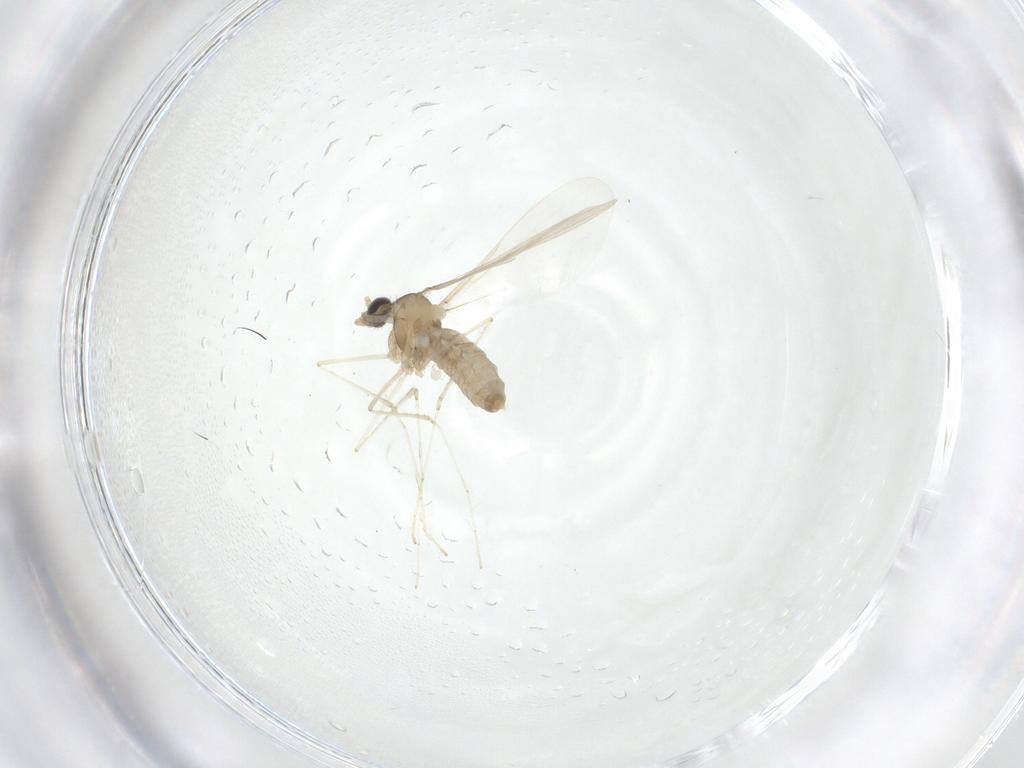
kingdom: Animalia
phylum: Arthropoda
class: Insecta
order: Diptera
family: Cecidomyiidae
